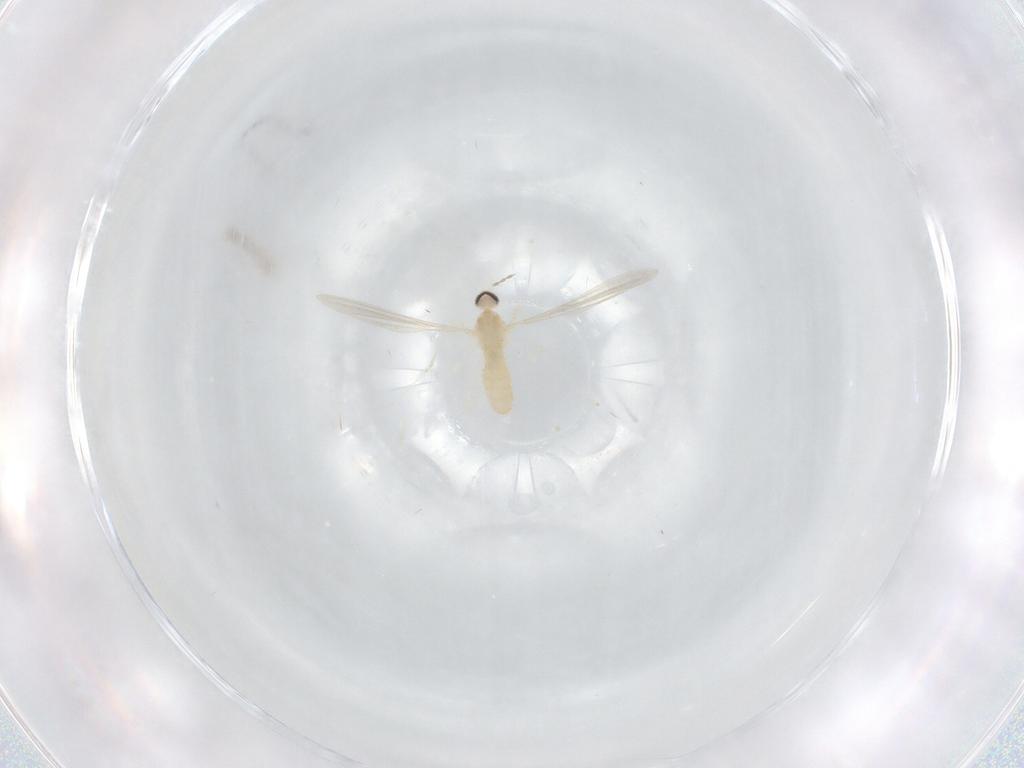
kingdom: Animalia
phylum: Arthropoda
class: Insecta
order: Diptera
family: Cecidomyiidae
